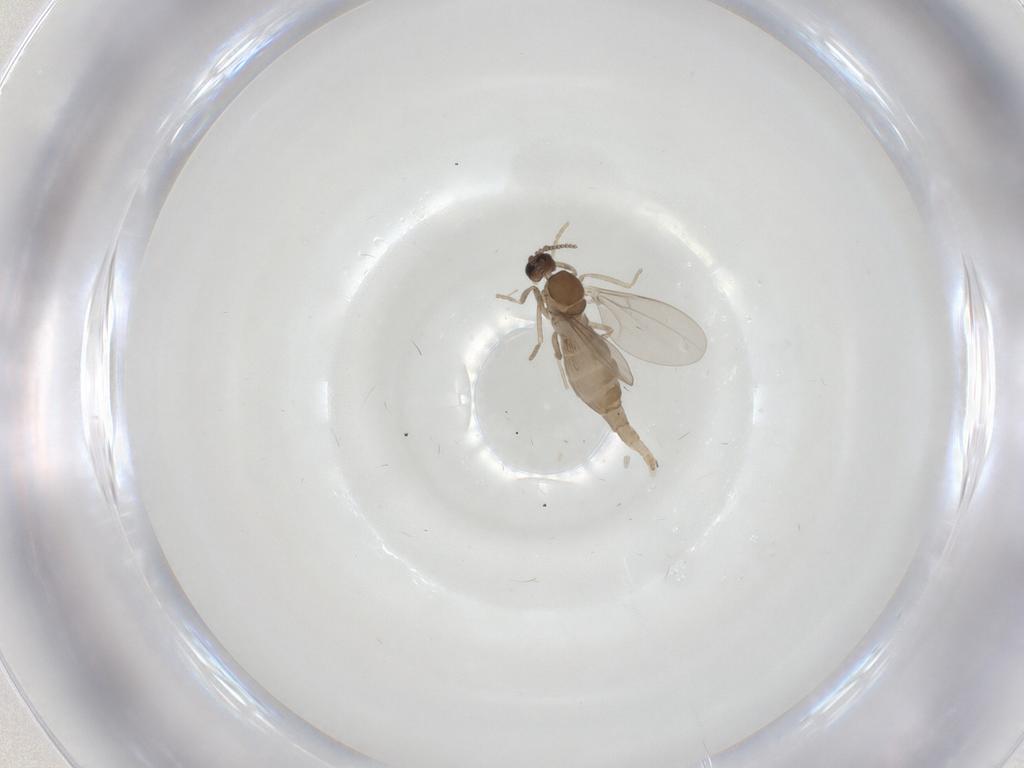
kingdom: Animalia
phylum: Arthropoda
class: Insecta
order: Diptera
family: Cecidomyiidae
